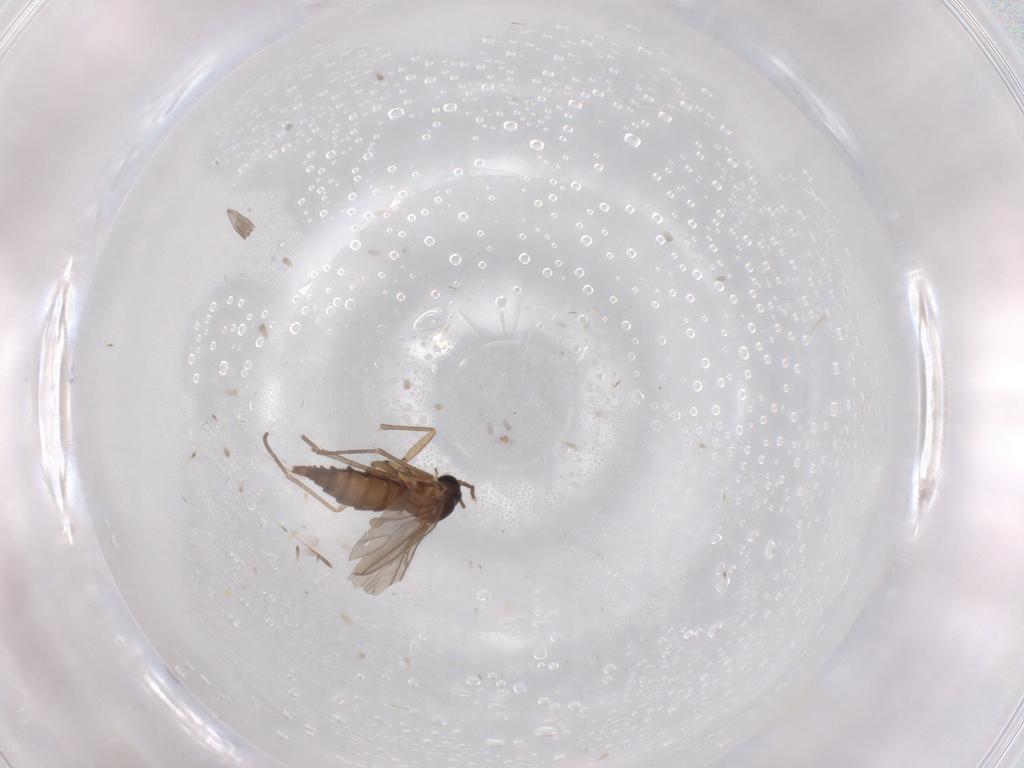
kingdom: Animalia
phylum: Arthropoda
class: Insecta
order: Diptera
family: Sciaridae
